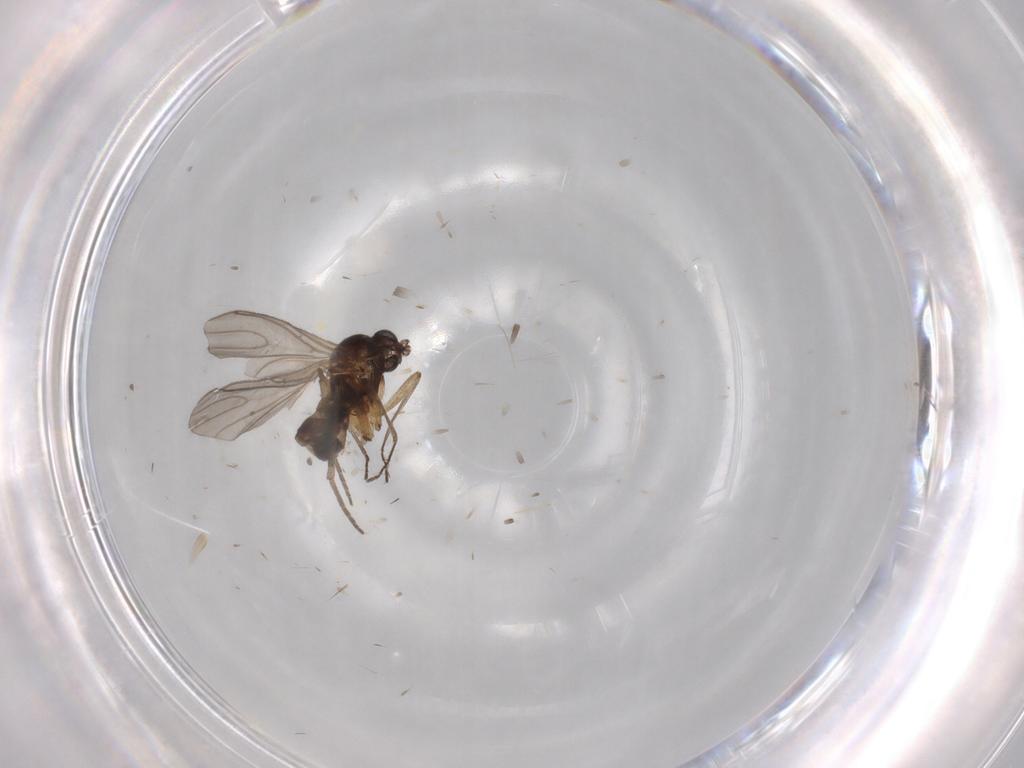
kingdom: Animalia
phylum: Arthropoda
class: Insecta
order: Diptera
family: Sciaridae
